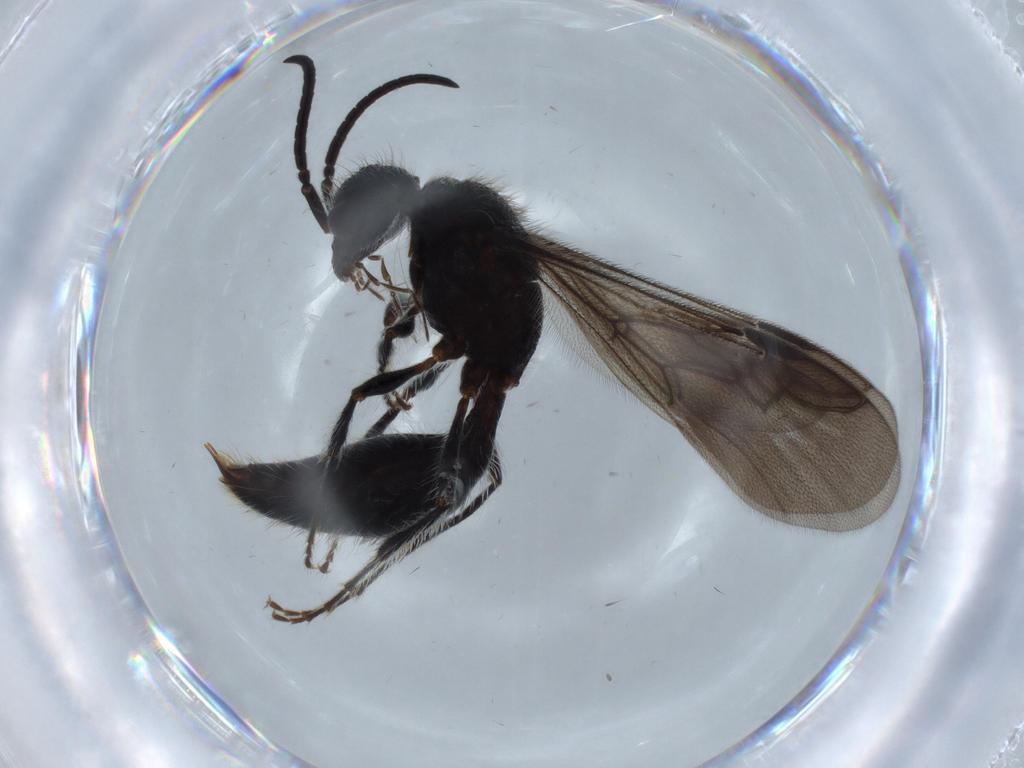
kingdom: Animalia
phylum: Arthropoda
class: Insecta
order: Hymenoptera
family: Mutillidae
